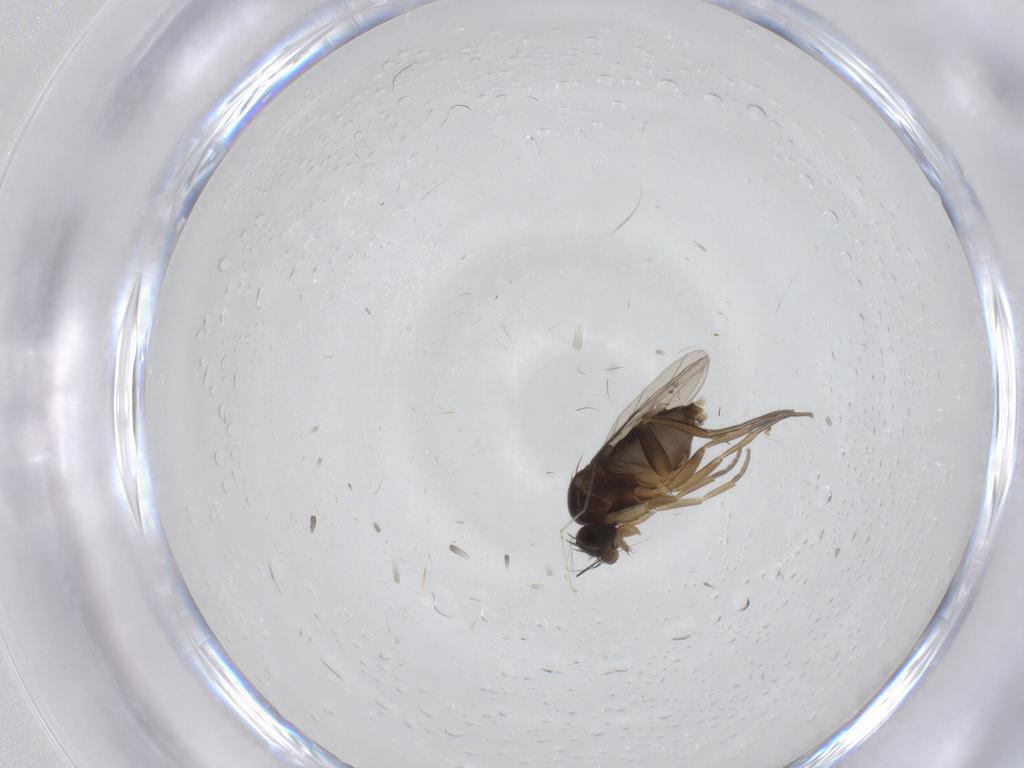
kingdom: Animalia
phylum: Arthropoda
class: Insecta
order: Diptera
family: Phoridae
